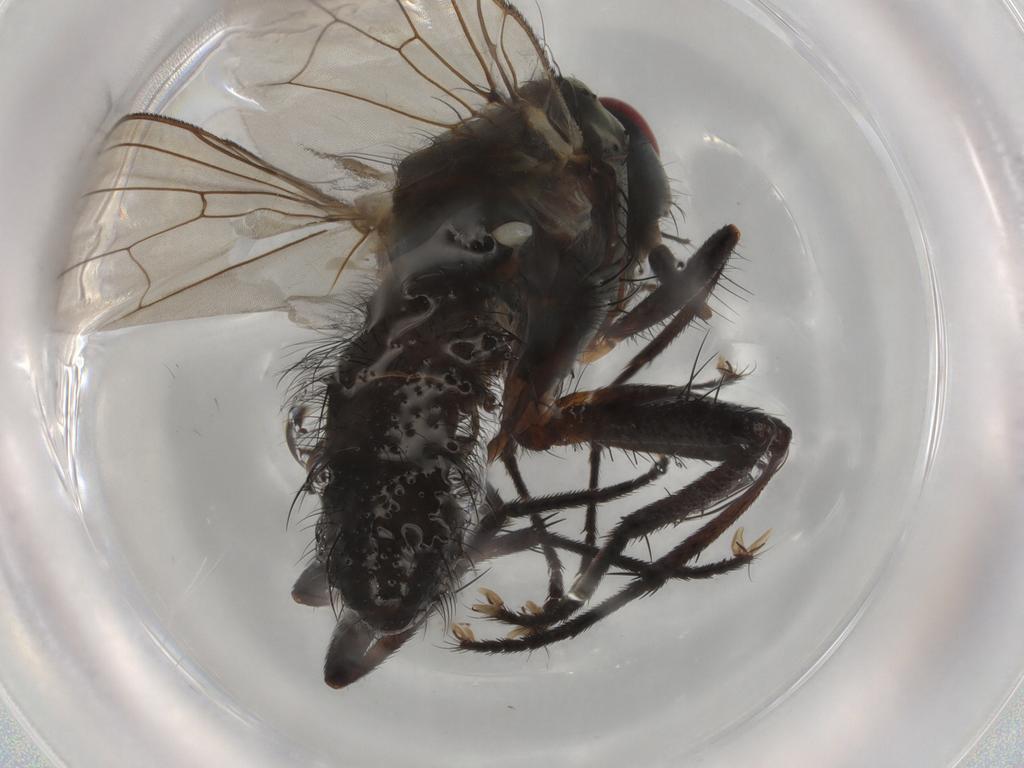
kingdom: Animalia
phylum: Arthropoda
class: Insecta
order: Diptera
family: Anthomyiidae
